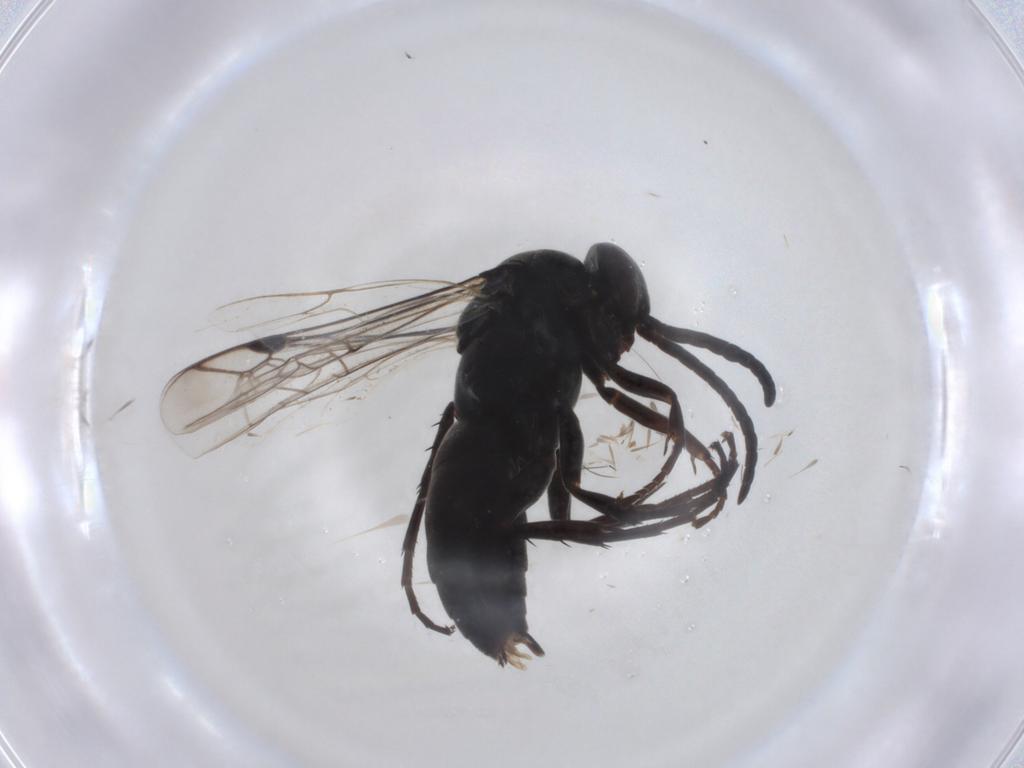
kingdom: Animalia
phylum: Arthropoda
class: Insecta
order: Hymenoptera
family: Pompilidae
